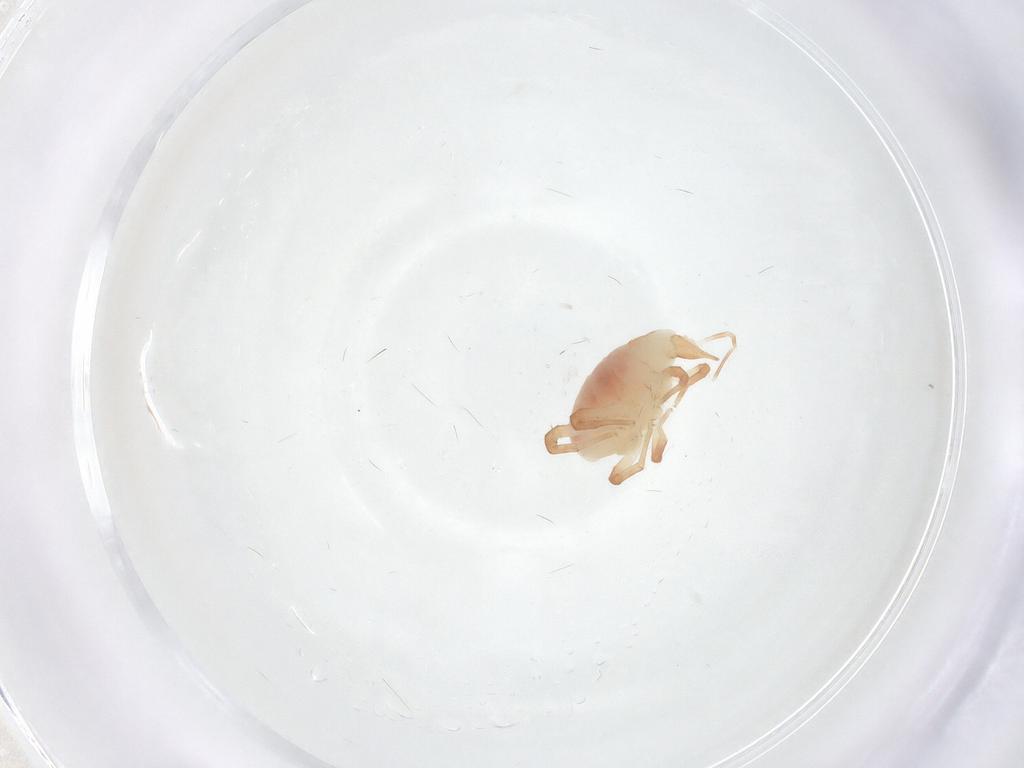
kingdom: Animalia
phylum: Arthropoda
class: Arachnida
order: Trombidiformes
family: Bdellidae
